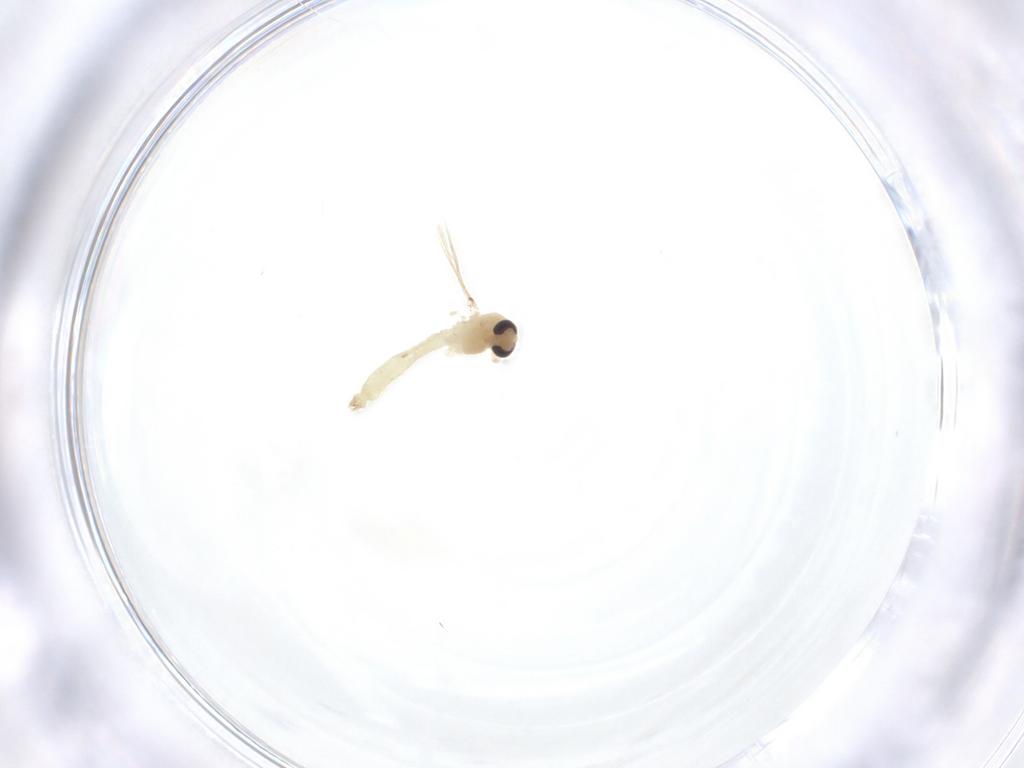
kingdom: Animalia
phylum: Arthropoda
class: Insecta
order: Diptera
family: Chironomidae
